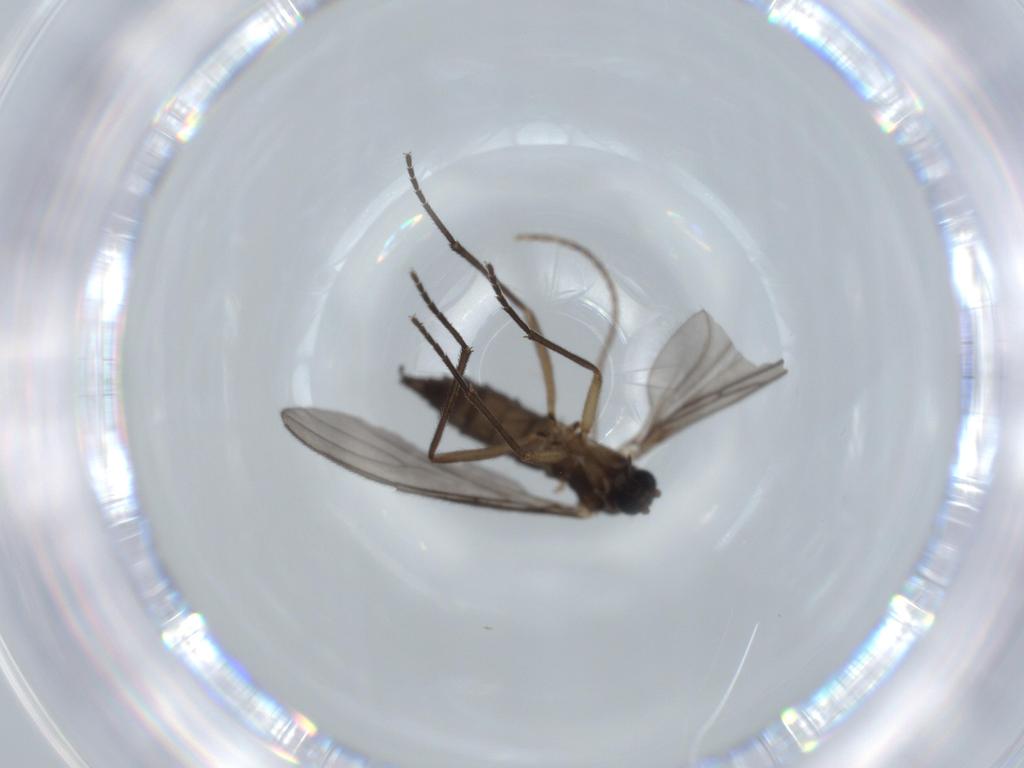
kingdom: Animalia
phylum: Arthropoda
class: Insecta
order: Diptera
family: Sciaridae
